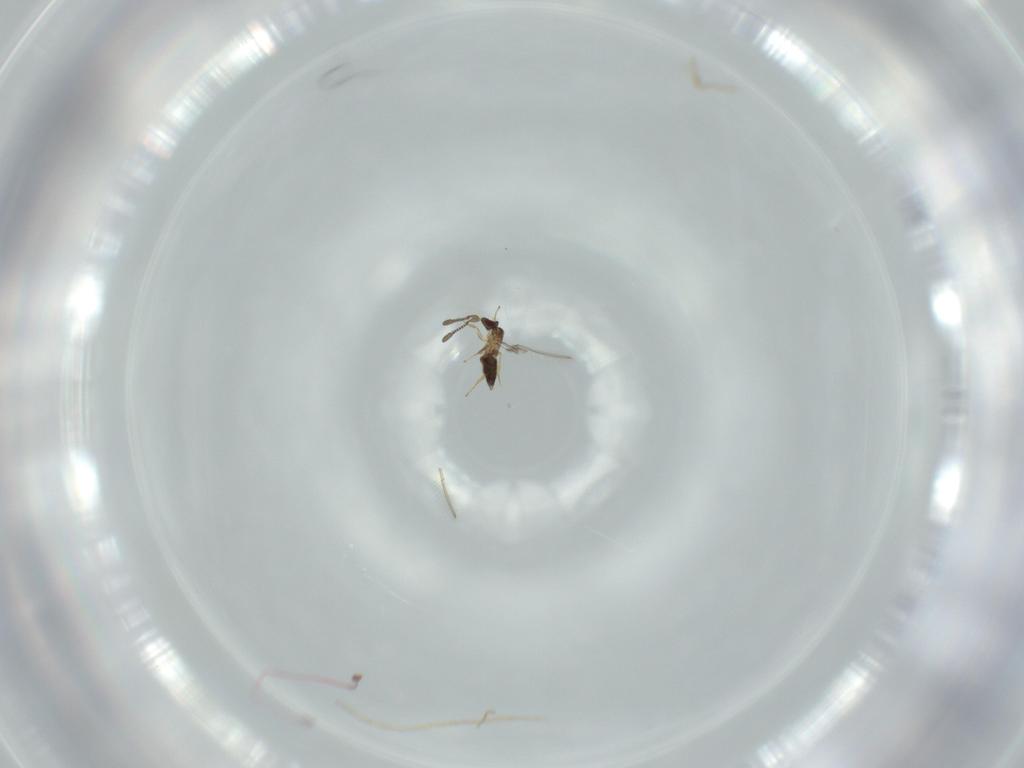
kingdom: Animalia
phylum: Arthropoda
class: Insecta
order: Hymenoptera
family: Mymaridae
